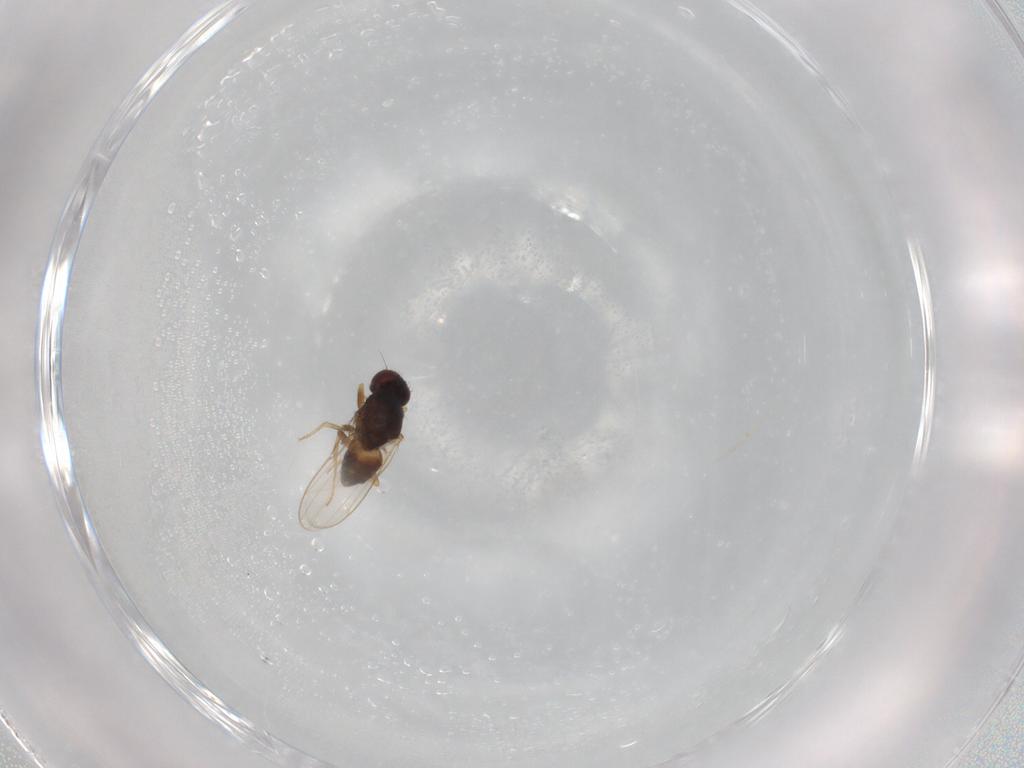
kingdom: Animalia
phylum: Arthropoda
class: Insecta
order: Diptera
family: Chloropidae
